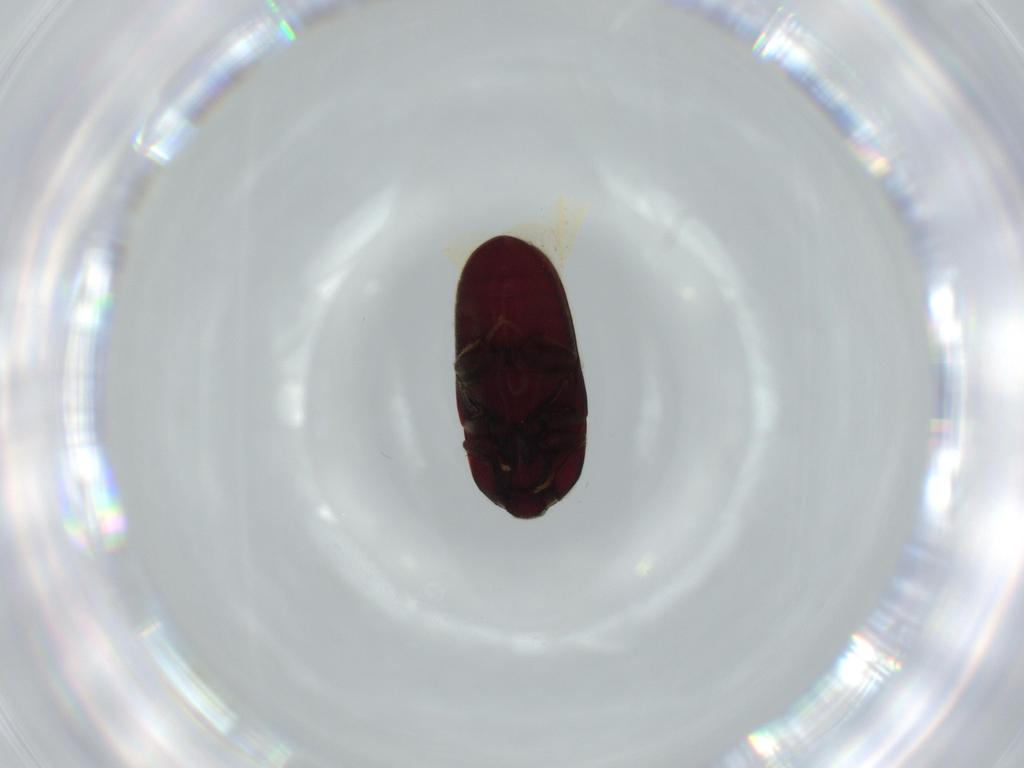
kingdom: Animalia
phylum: Arthropoda
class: Insecta
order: Coleoptera
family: Throscidae
